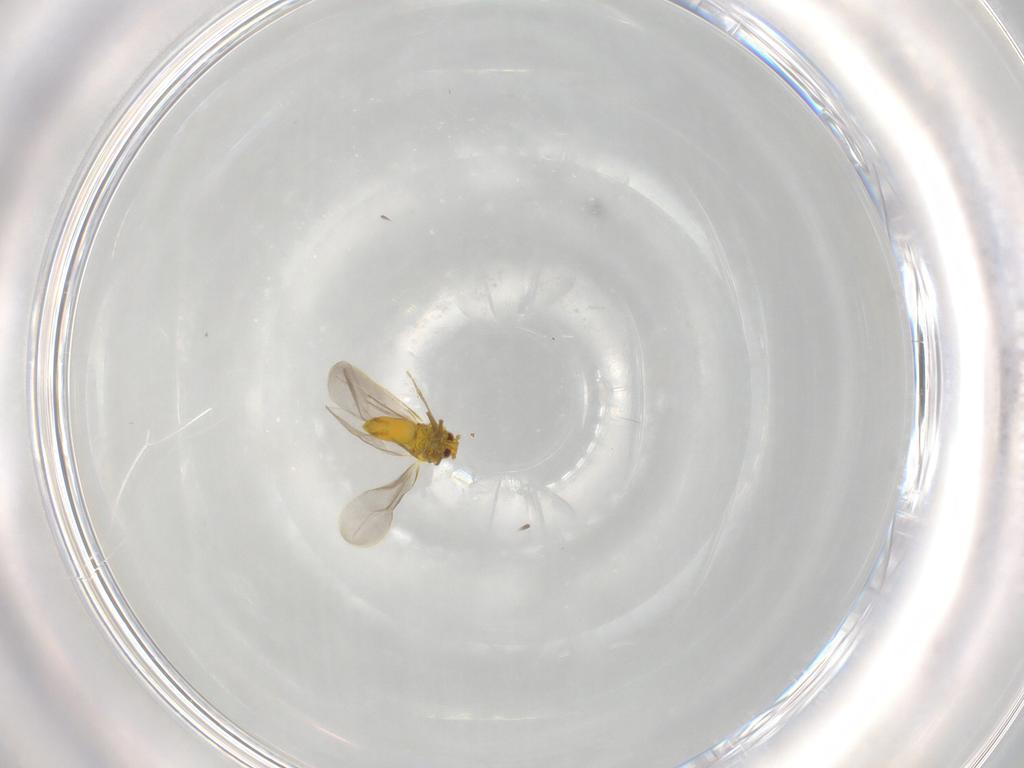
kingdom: Animalia
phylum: Arthropoda
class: Insecta
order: Hemiptera
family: Aleyrodidae
